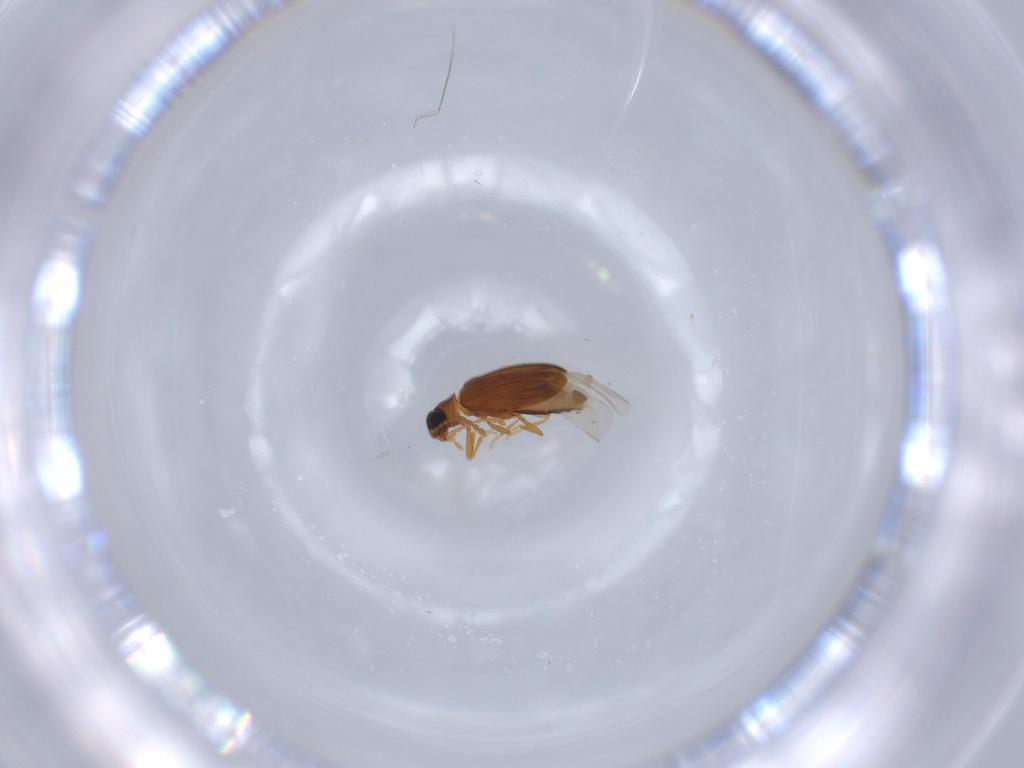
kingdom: Animalia
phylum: Arthropoda
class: Insecta
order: Coleoptera
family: Aderidae
